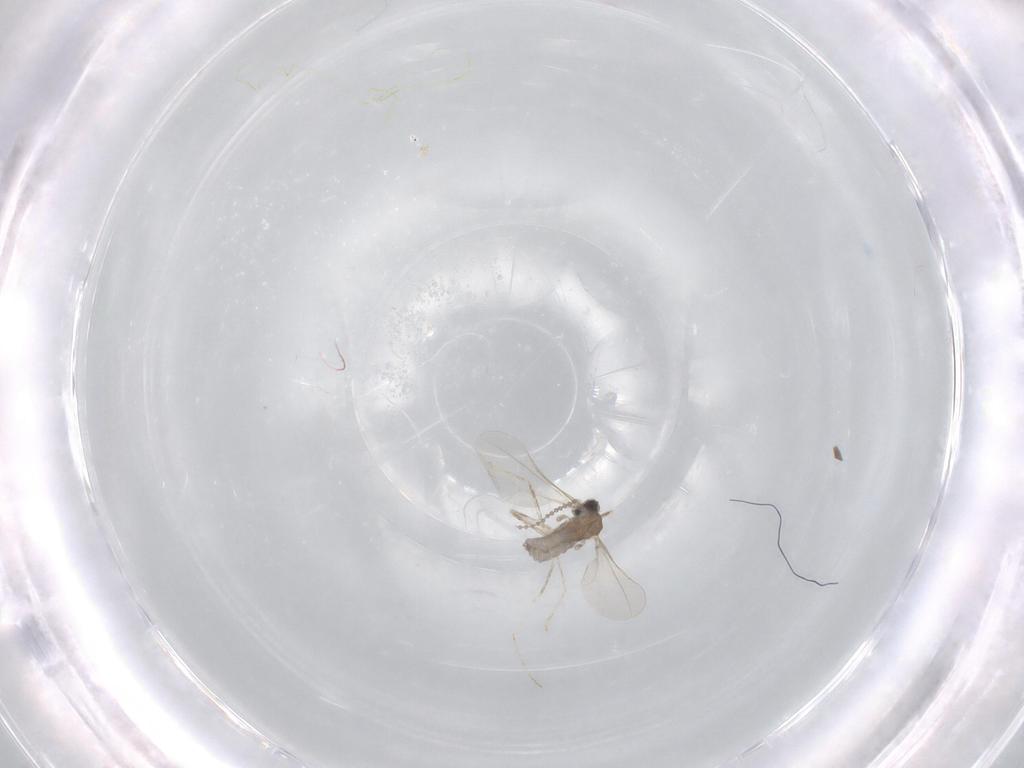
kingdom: Animalia
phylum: Arthropoda
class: Insecta
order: Diptera
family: Cecidomyiidae
